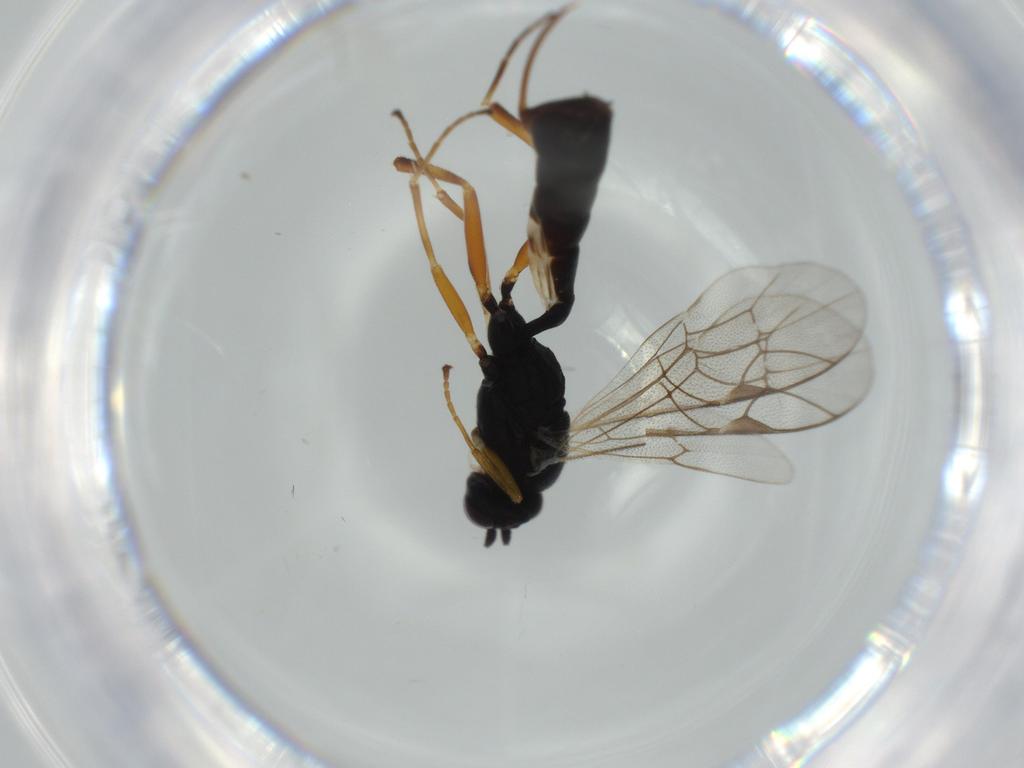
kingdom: Animalia
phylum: Arthropoda
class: Insecta
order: Hymenoptera
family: Ichneumonidae
